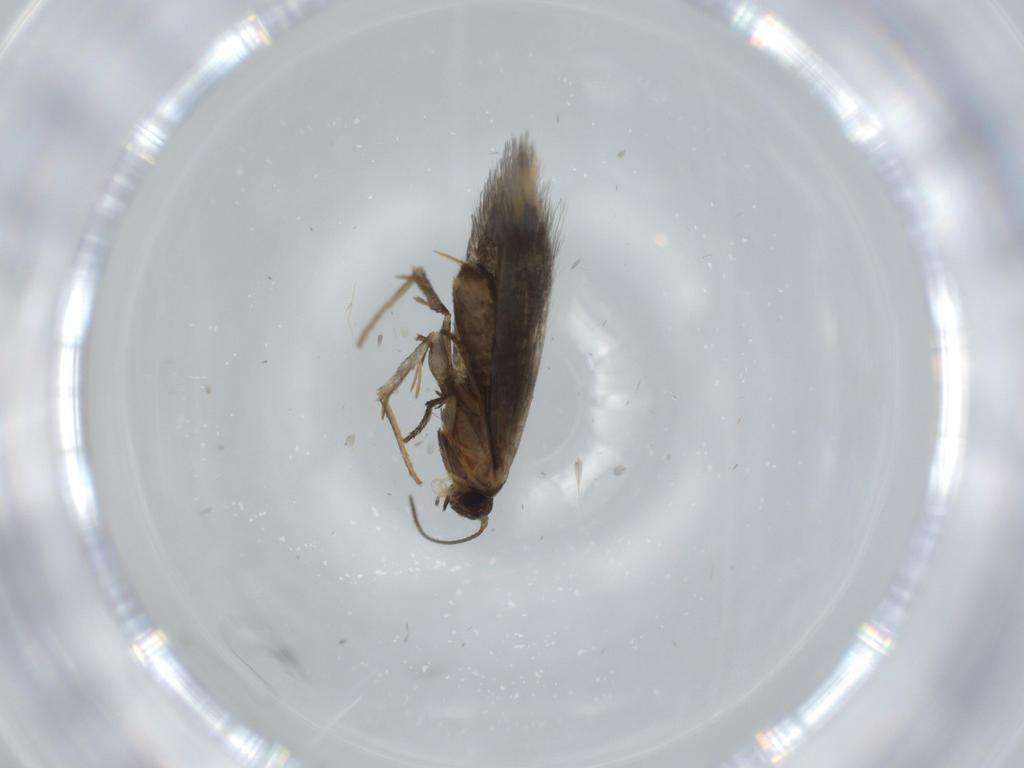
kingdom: Animalia
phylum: Arthropoda
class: Insecta
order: Lepidoptera
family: Heliozelidae
